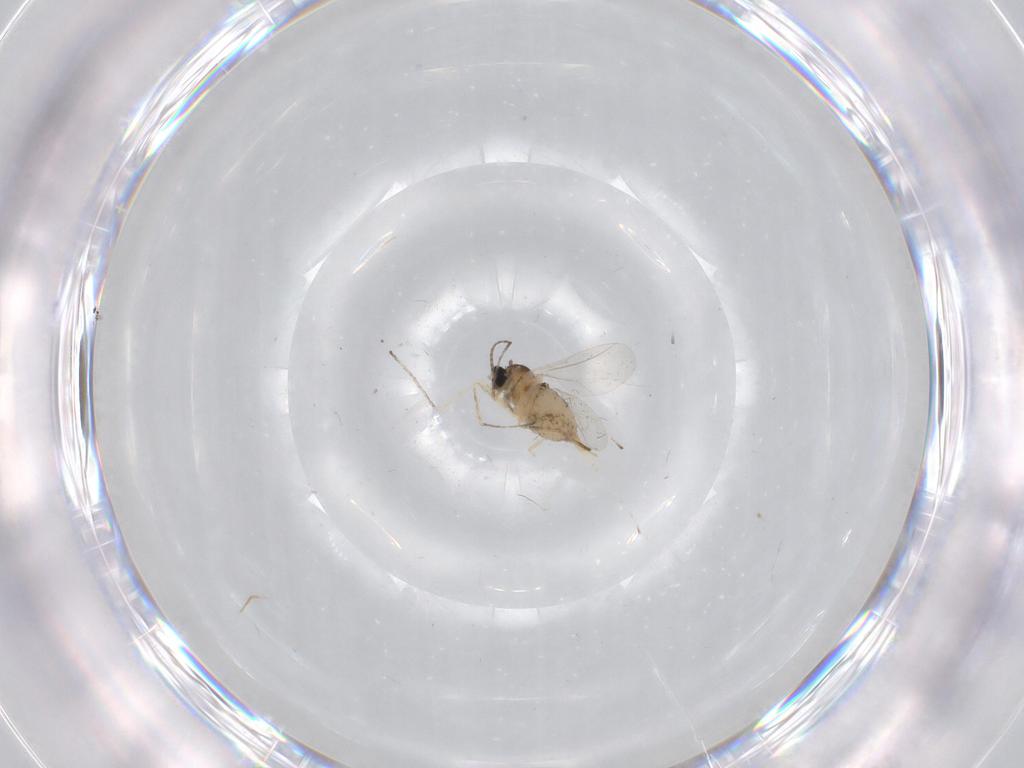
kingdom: Animalia
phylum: Arthropoda
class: Insecta
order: Diptera
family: Cecidomyiidae
